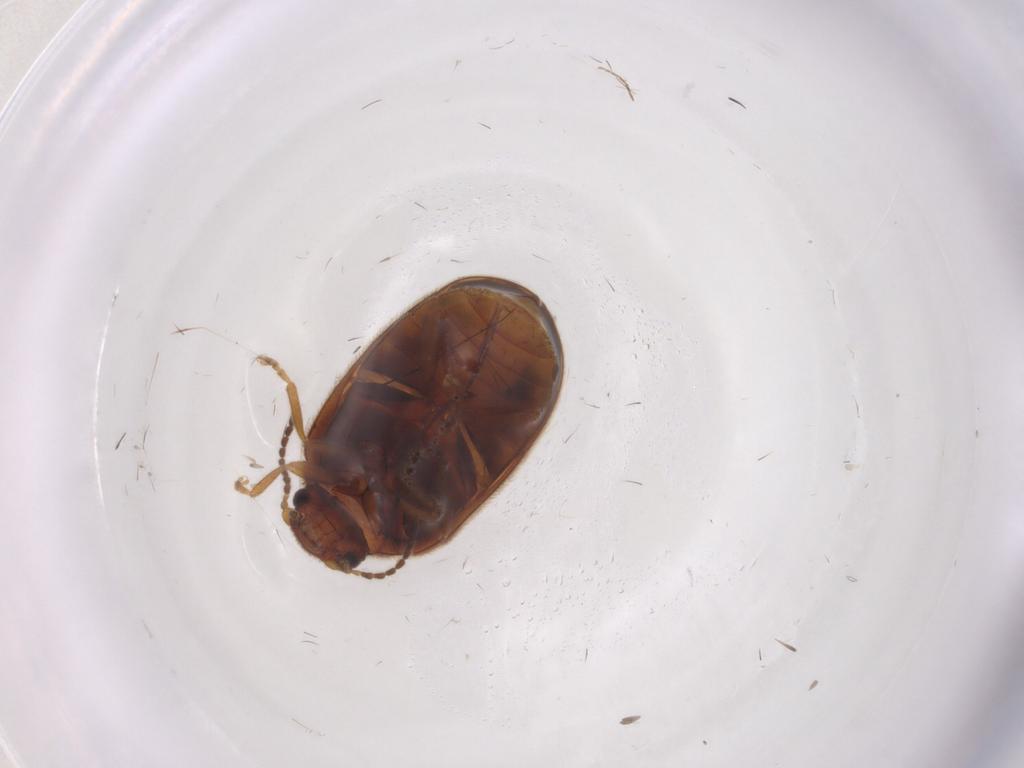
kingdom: Animalia
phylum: Arthropoda
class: Insecta
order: Coleoptera
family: Scirtidae
